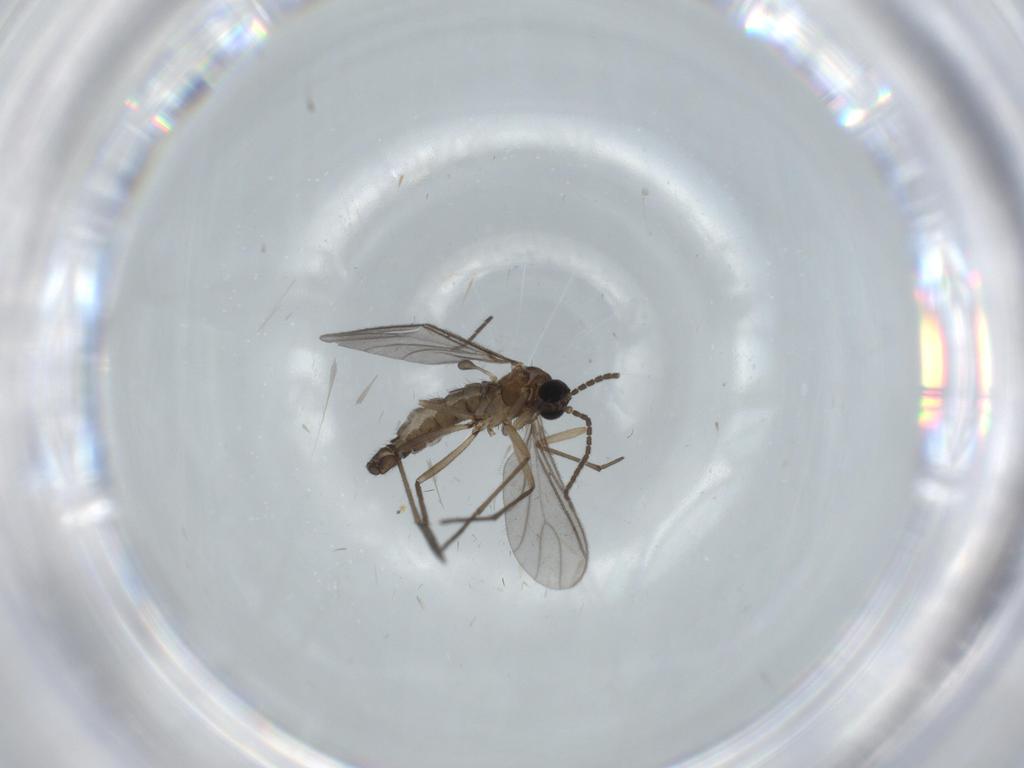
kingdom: Animalia
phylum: Arthropoda
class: Insecta
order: Diptera
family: Sciaridae
